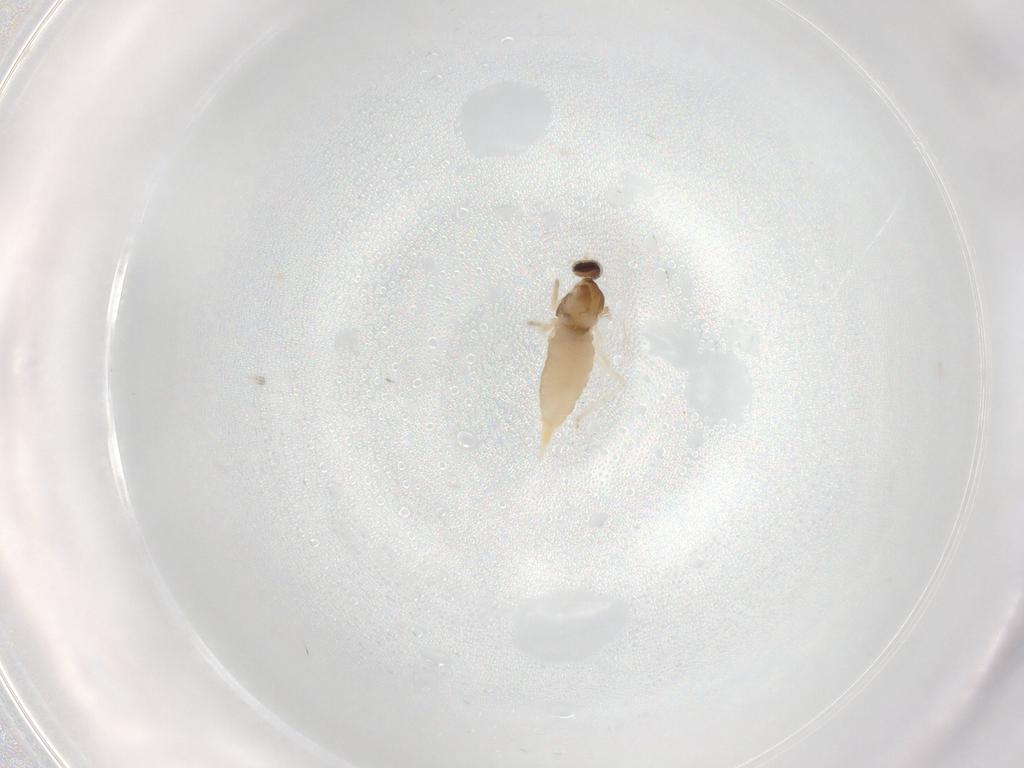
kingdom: Animalia
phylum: Arthropoda
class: Insecta
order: Diptera
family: Cecidomyiidae
